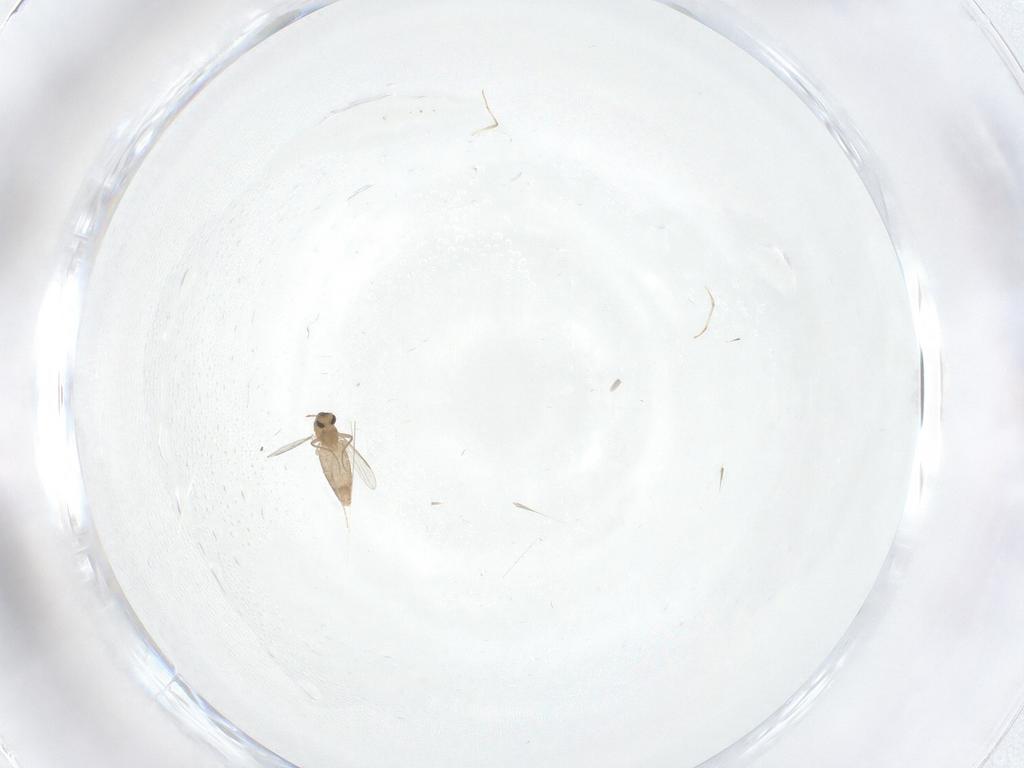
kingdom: Animalia
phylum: Arthropoda
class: Insecta
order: Diptera
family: Chironomidae
